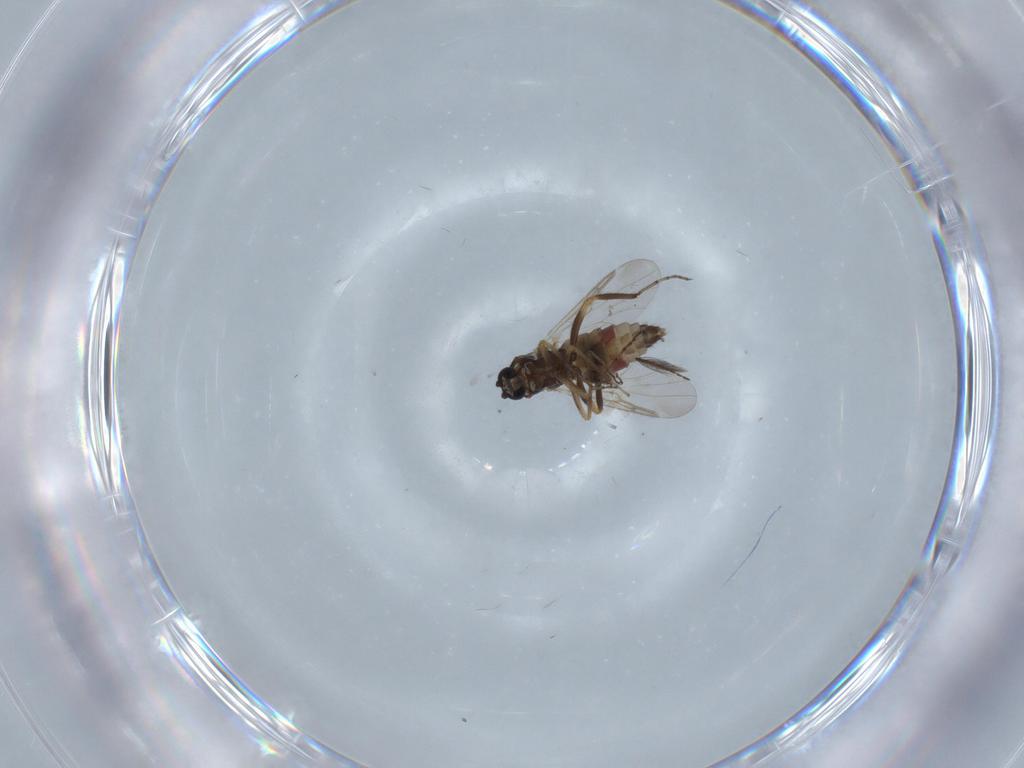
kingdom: Animalia
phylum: Arthropoda
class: Insecta
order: Diptera
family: Ceratopogonidae
